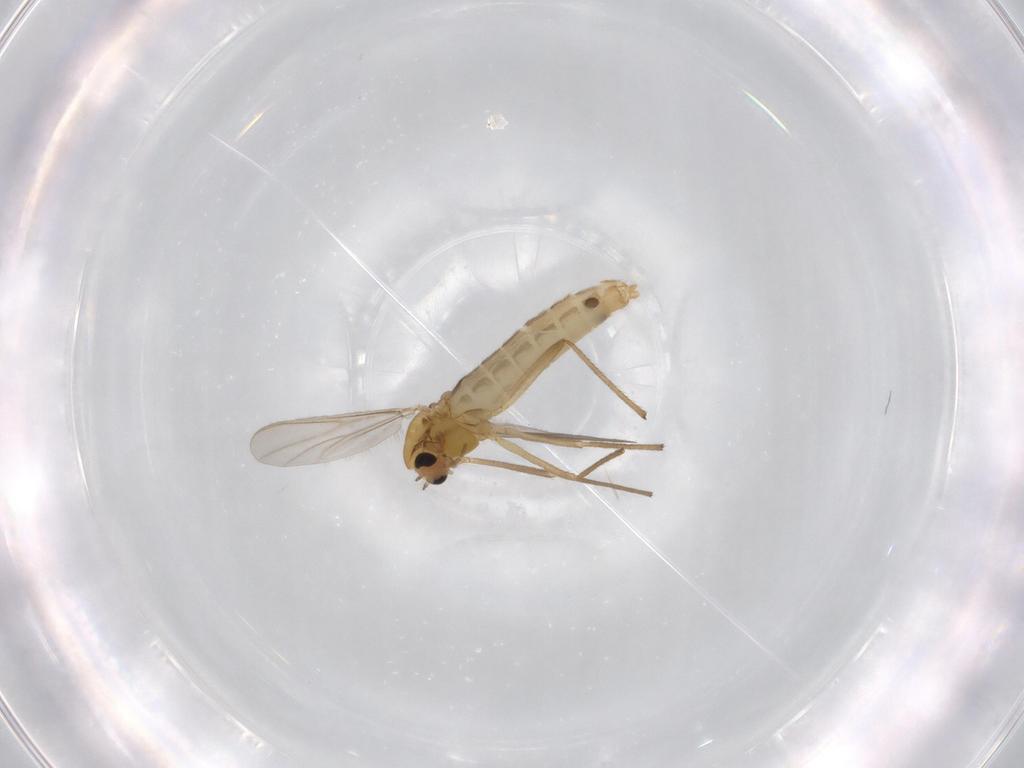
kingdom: Animalia
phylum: Arthropoda
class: Insecta
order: Diptera
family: Chironomidae
